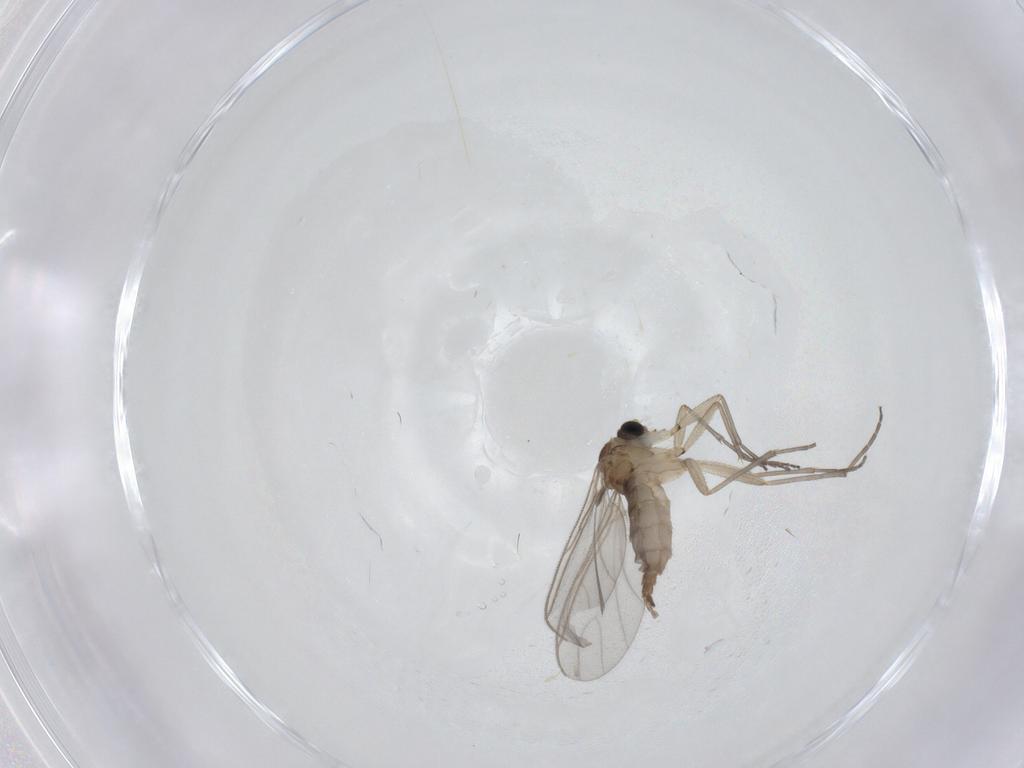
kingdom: Animalia
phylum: Arthropoda
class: Insecta
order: Diptera
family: Sciaridae
